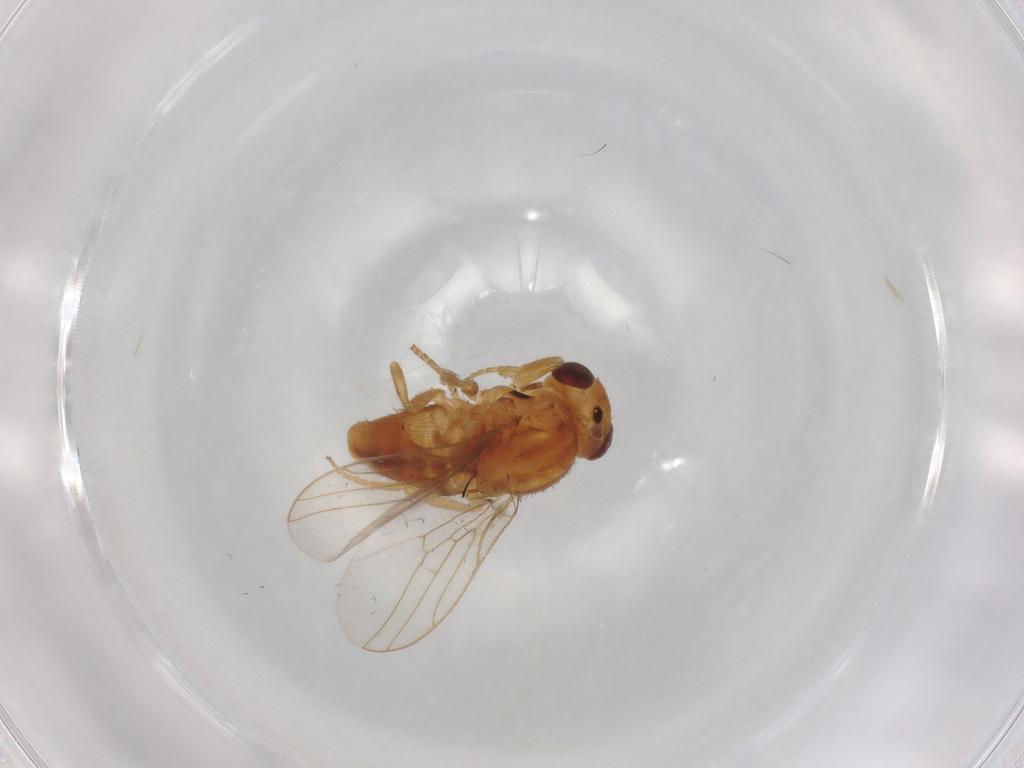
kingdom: Animalia
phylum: Arthropoda
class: Insecta
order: Diptera
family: Chloropidae
